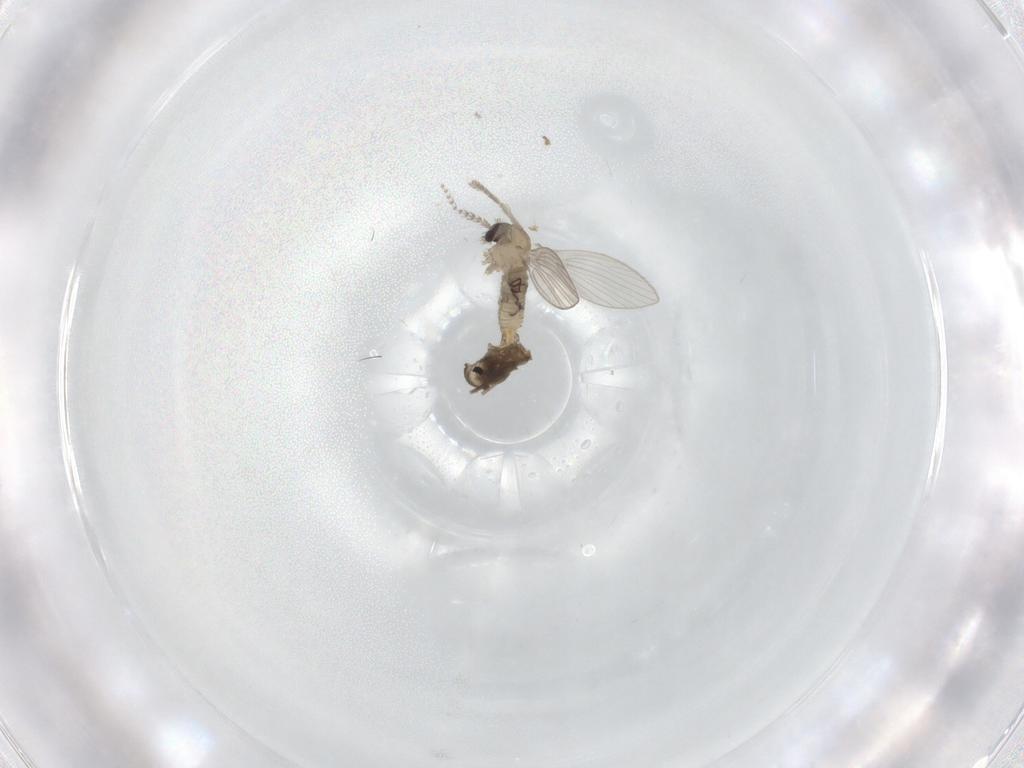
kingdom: Animalia
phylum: Arthropoda
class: Insecta
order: Diptera
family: Psychodidae
